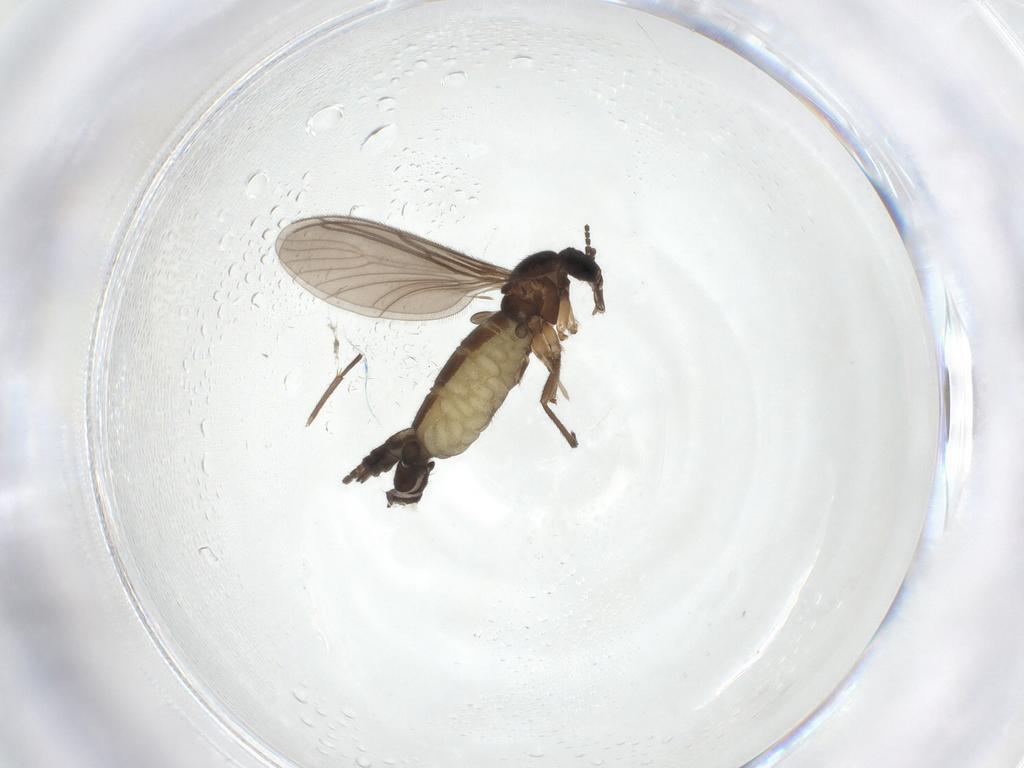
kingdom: Animalia
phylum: Arthropoda
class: Insecta
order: Diptera
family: Sciaridae
